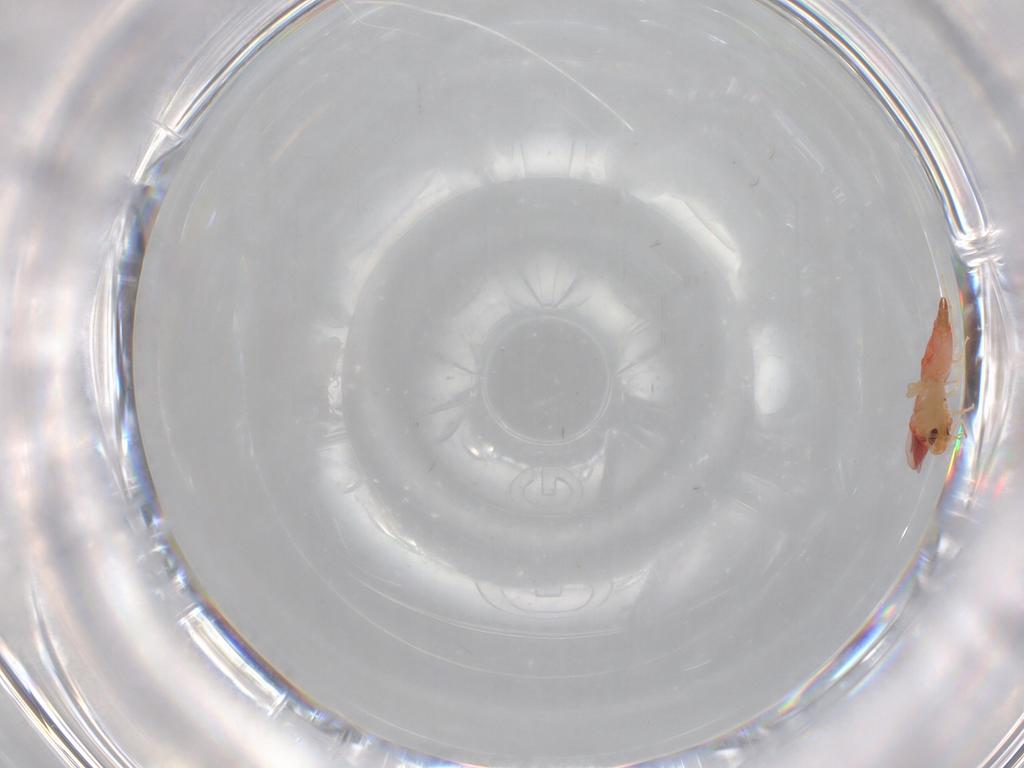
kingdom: Animalia
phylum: Arthropoda
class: Insecta
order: Hemiptera
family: Aleyrodidae
